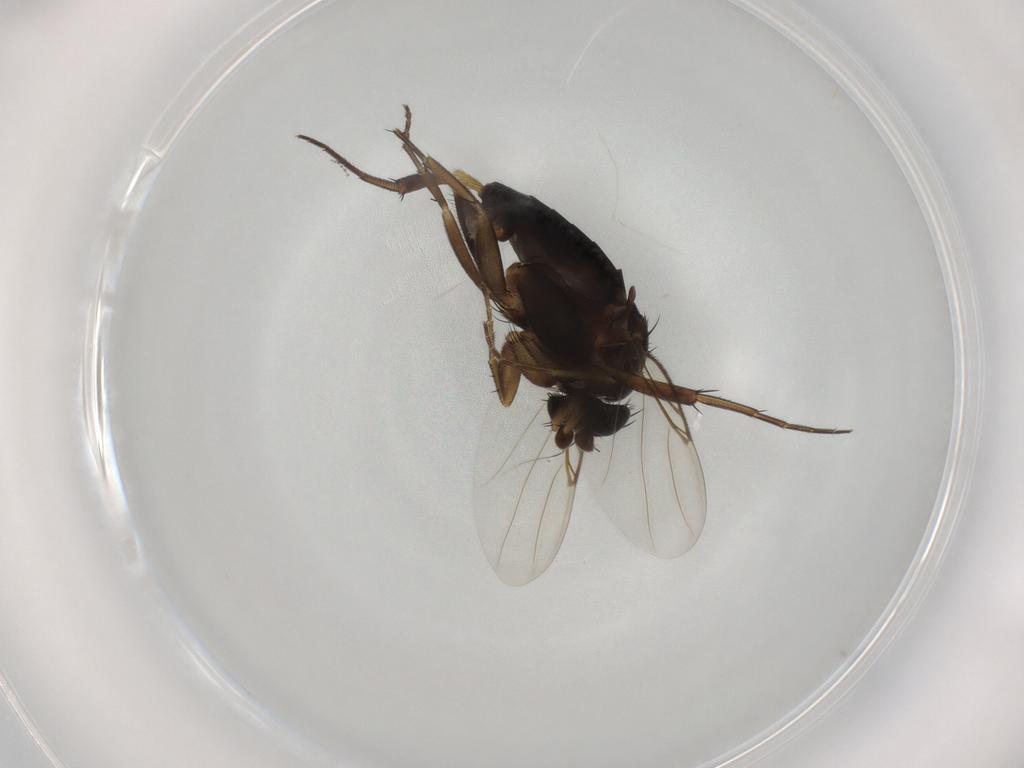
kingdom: Animalia
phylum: Arthropoda
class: Insecta
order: Diptera
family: Phoridae
